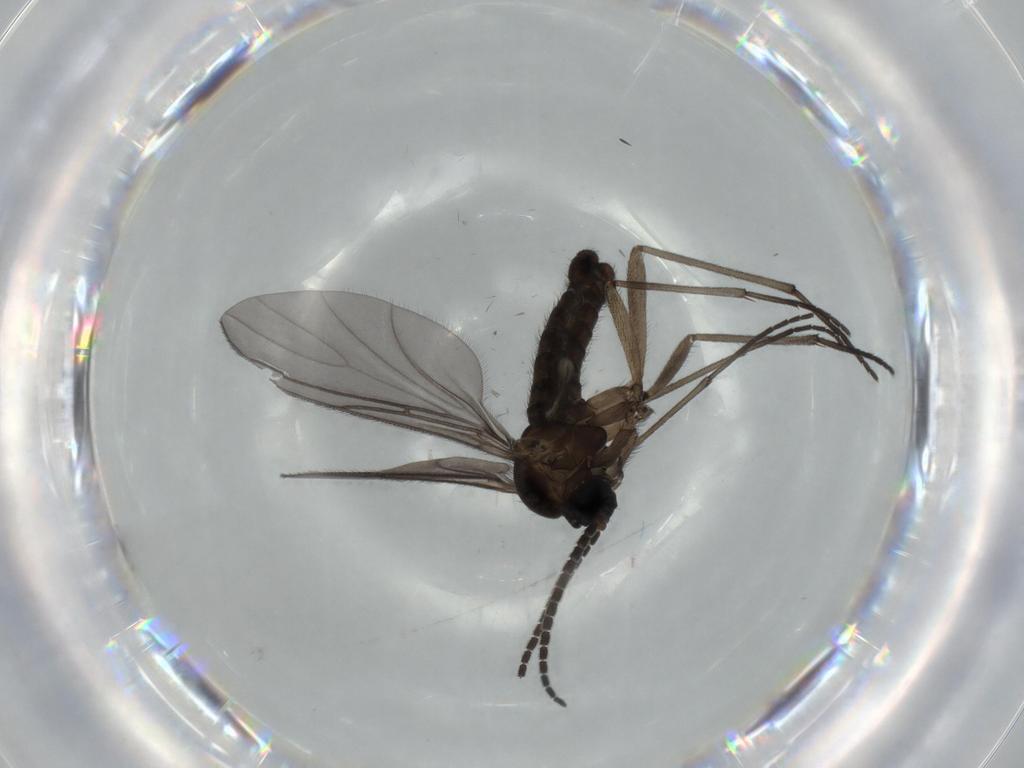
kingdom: Animalia
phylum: Arthropoda
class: Insecta
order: Diptera
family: Sciaridae
